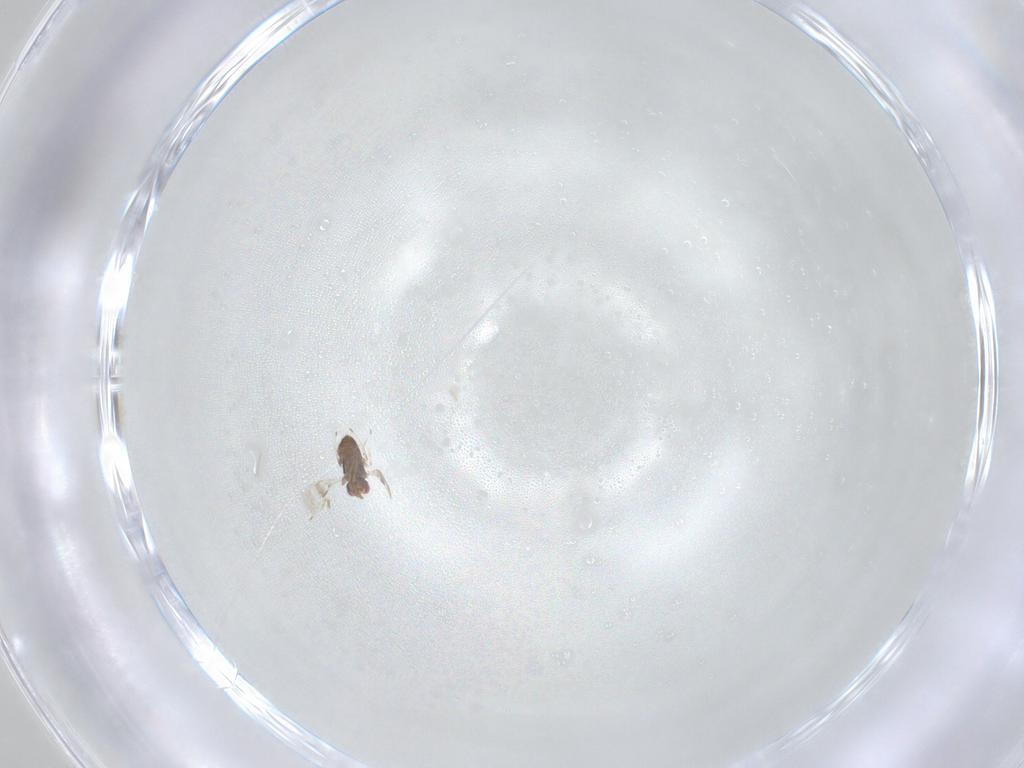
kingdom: Animalia
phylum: Arthropoda
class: Insecta
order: Hymenoptera
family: Azotidae
